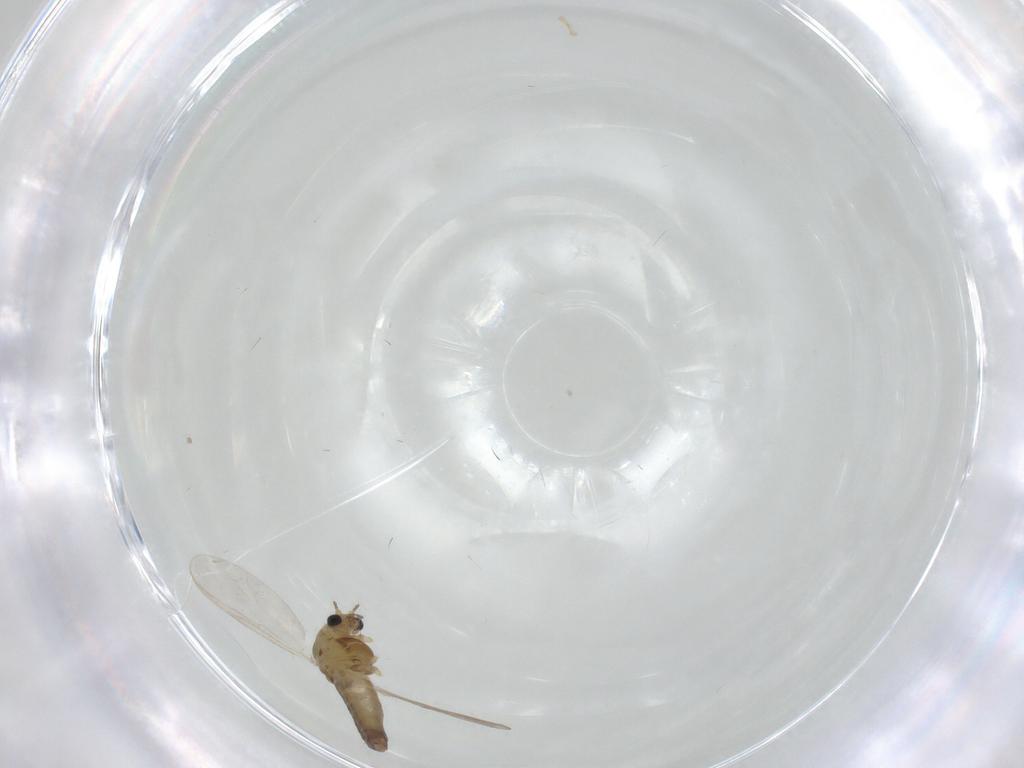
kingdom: Animalia
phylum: Arthropoda
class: Insecta
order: Diptera
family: Chironomidae
